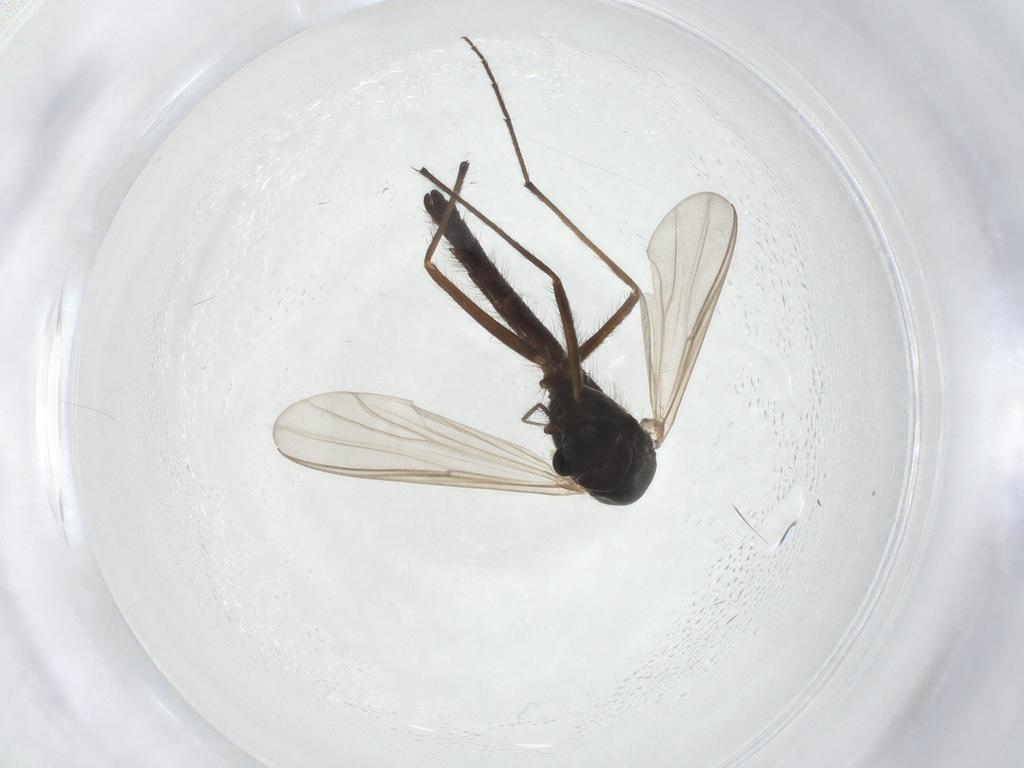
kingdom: Animalia
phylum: Arthropoda
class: Insecta
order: Diptera
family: Chironomidae
